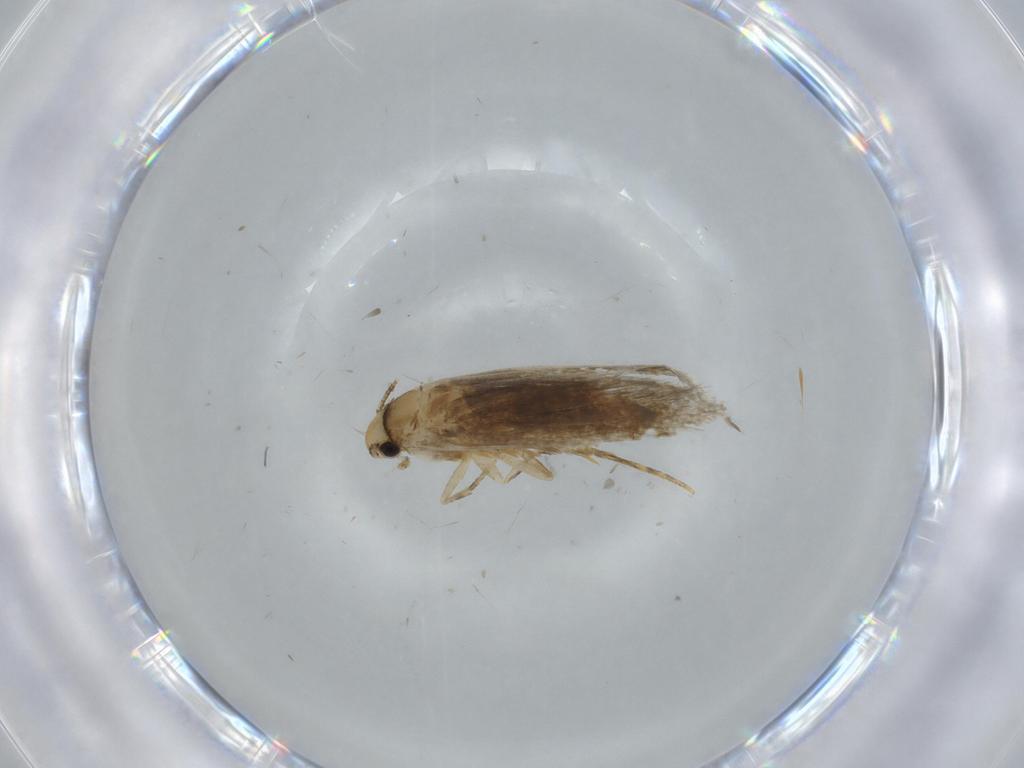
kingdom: Animalia
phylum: Arthropoda
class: Insecta
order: Lepidoptera
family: Tineidae
